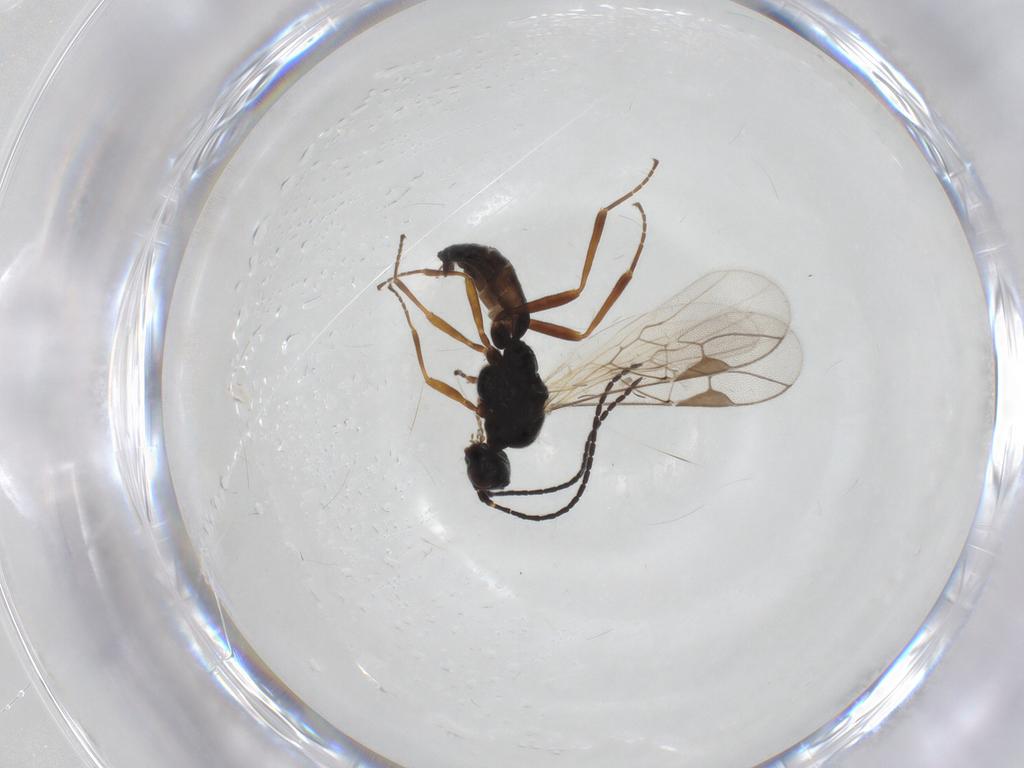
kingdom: Animalia
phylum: Arthropoda
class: Insecta
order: Hymenoptera
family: Braconidae
